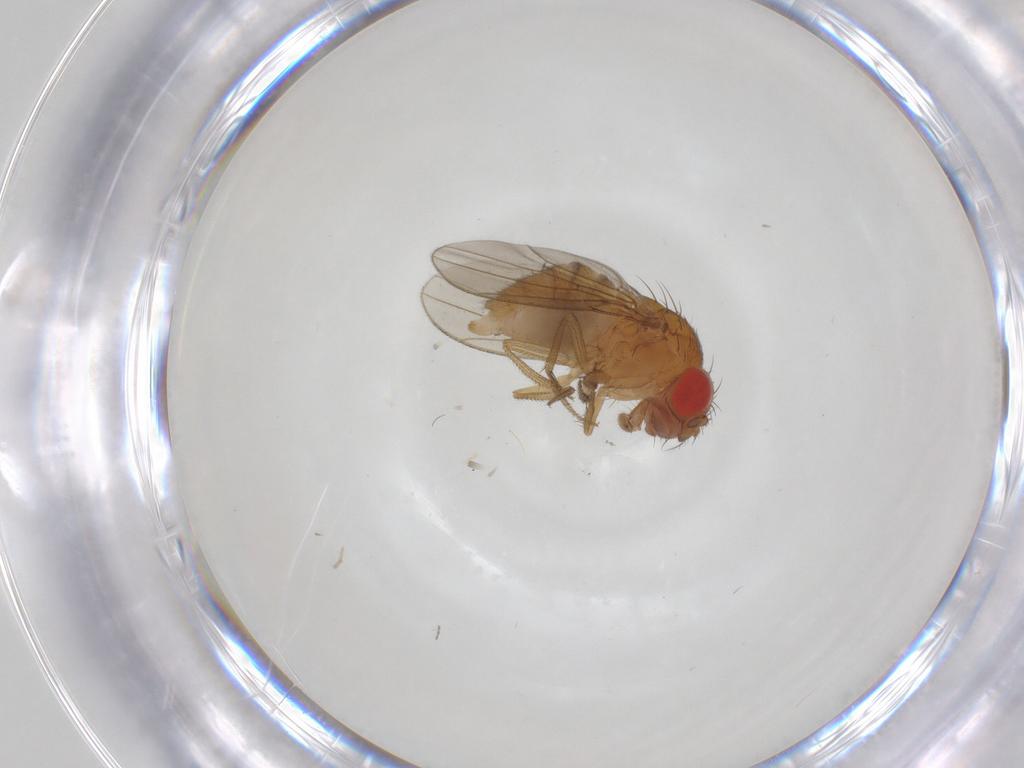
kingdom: Animalia
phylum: Arthropoda
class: Insecta
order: Diptera
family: Drosophilidae
